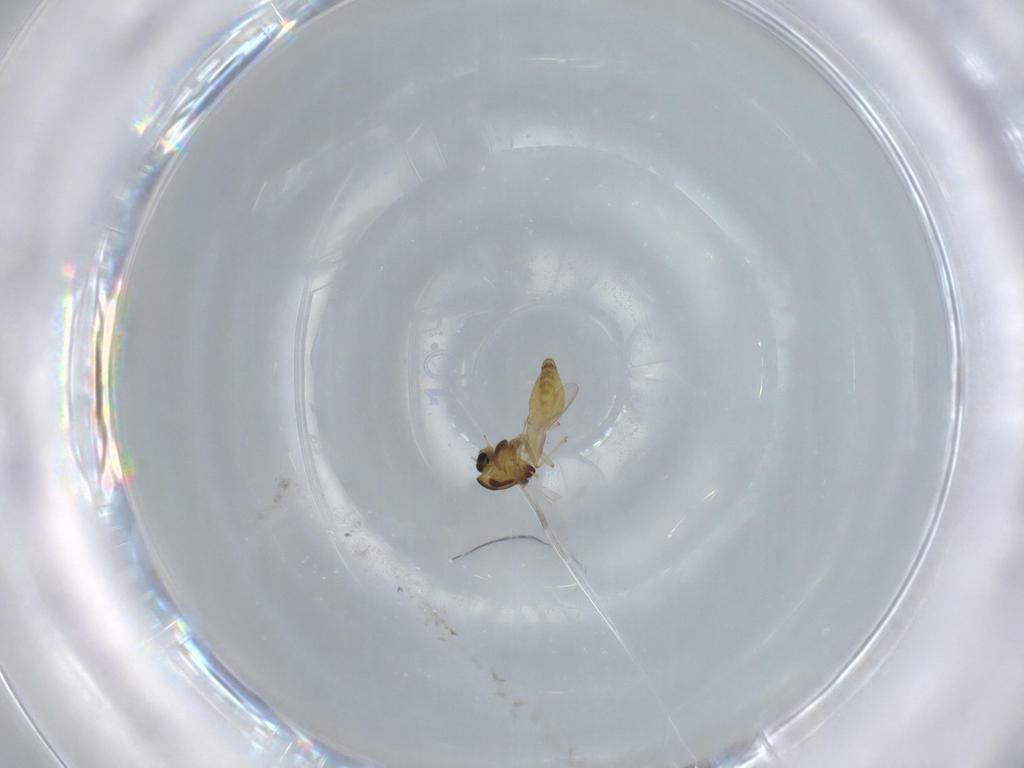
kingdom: Animalia
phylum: Arthropoda
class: Insecta
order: Diptera
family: Chironomidae
